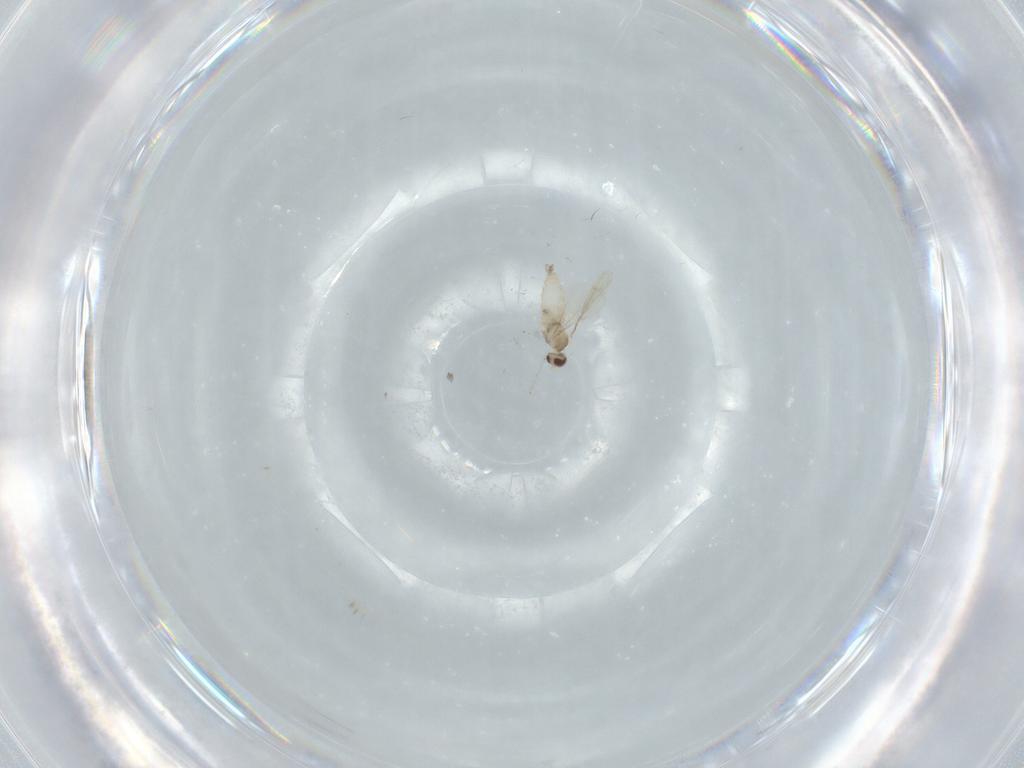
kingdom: Animalia
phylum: Arthropoda
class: Insecta
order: Diptera
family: Cecidomyiidae
